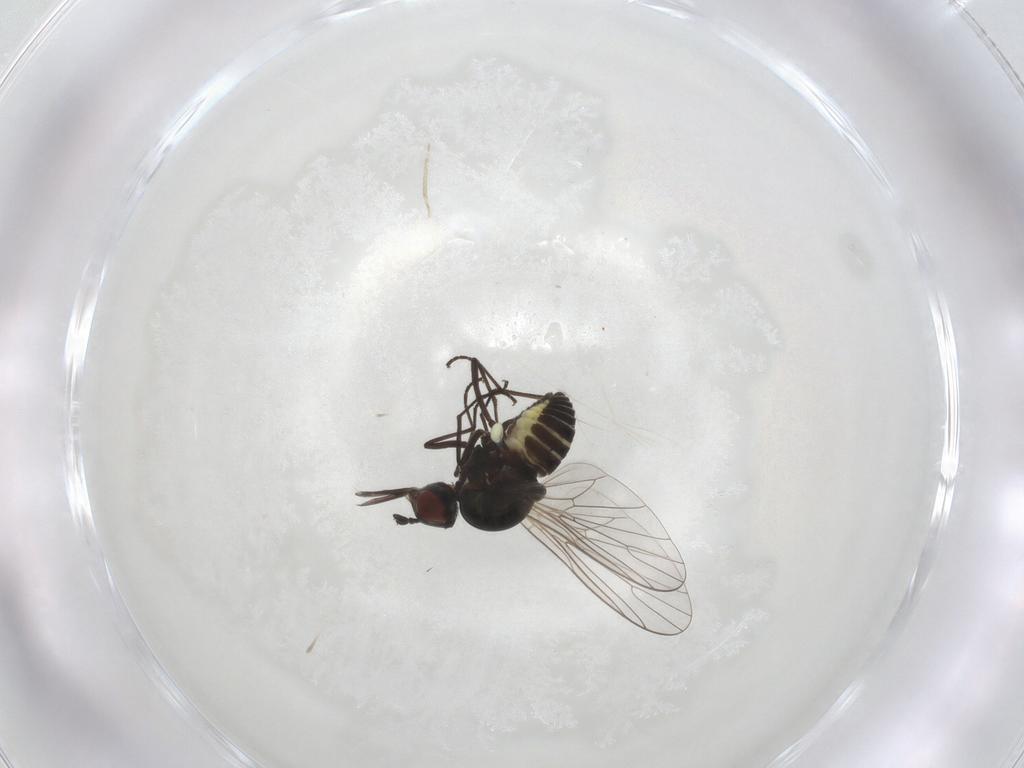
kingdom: Animalia
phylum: Arthropoda
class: Insecta
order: Diptera
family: Bombyliidae
